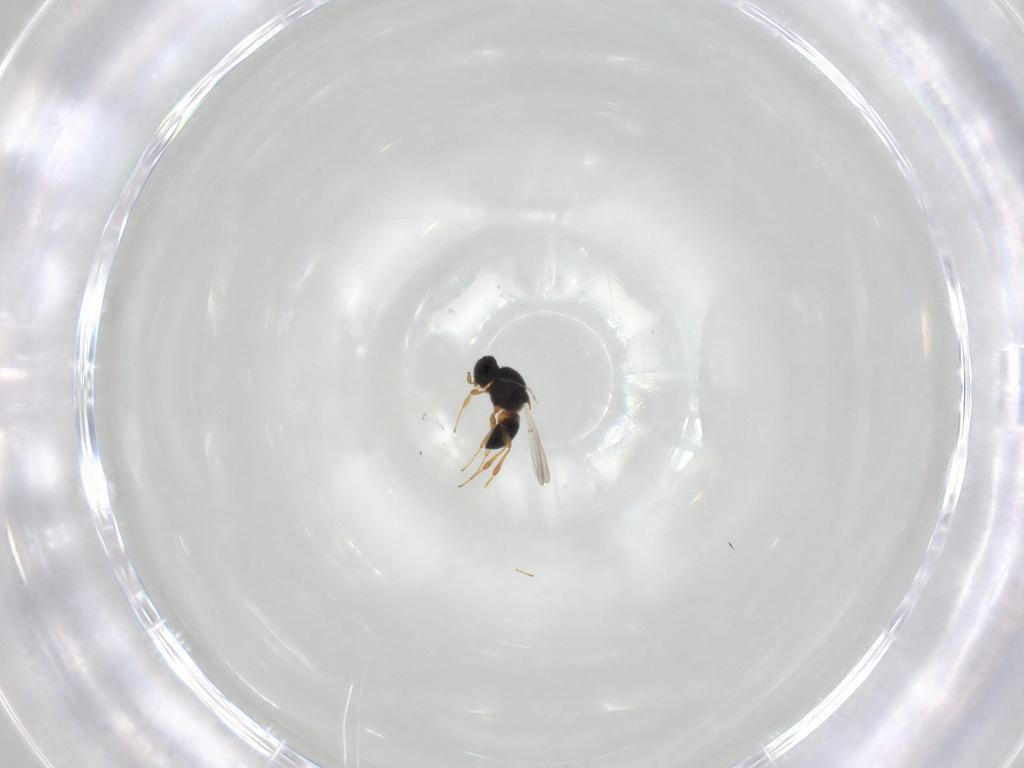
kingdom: Animalia
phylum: Arthropoda
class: Insecta
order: Hymenoptera
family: Platygastridae
